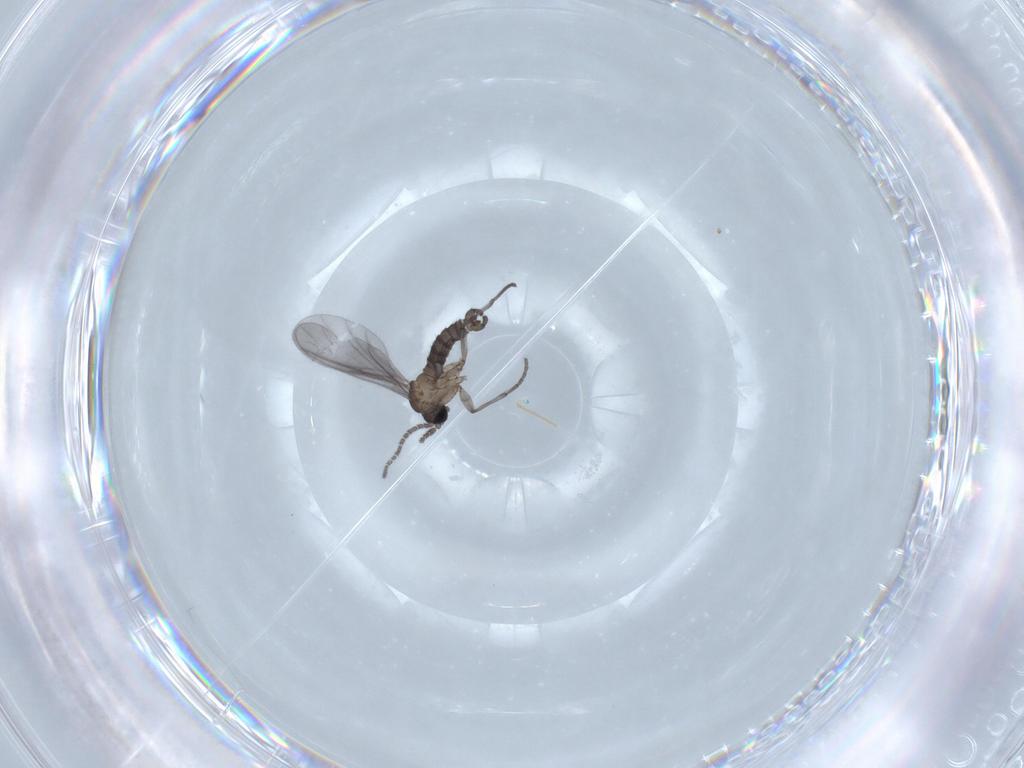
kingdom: Animalia
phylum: Arthropoda
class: Insecta
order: Diptera
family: Sciaridae
